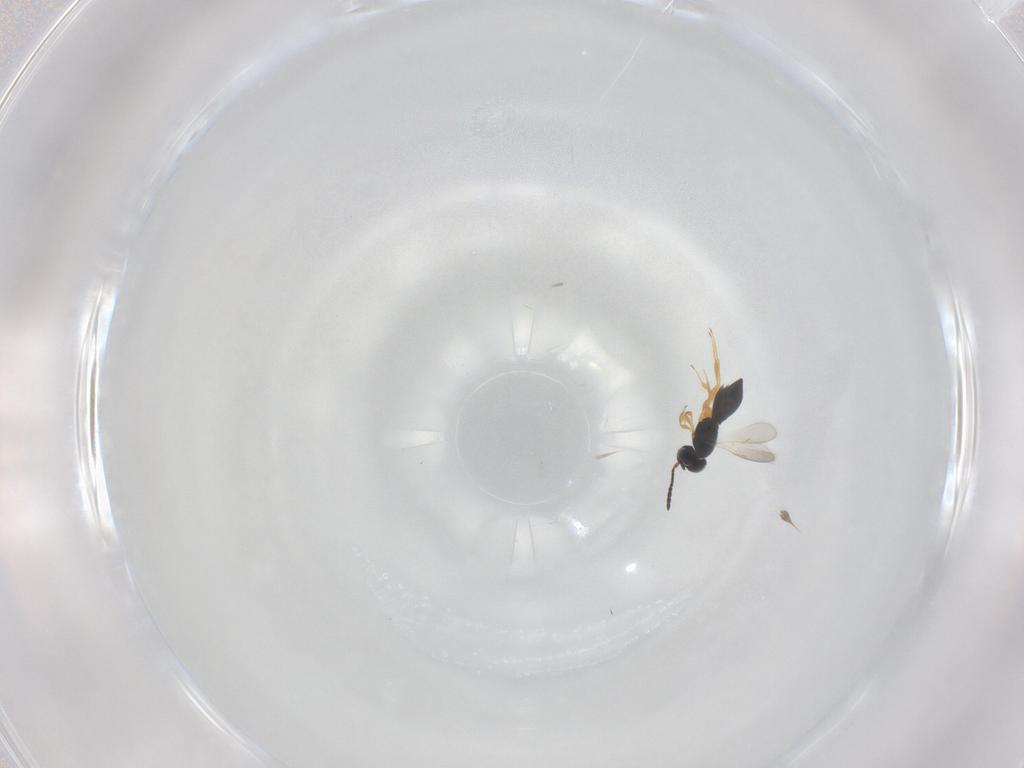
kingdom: Animalia
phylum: Arthropoda
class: Insecta
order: Hymenoptera
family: Scelionidae
